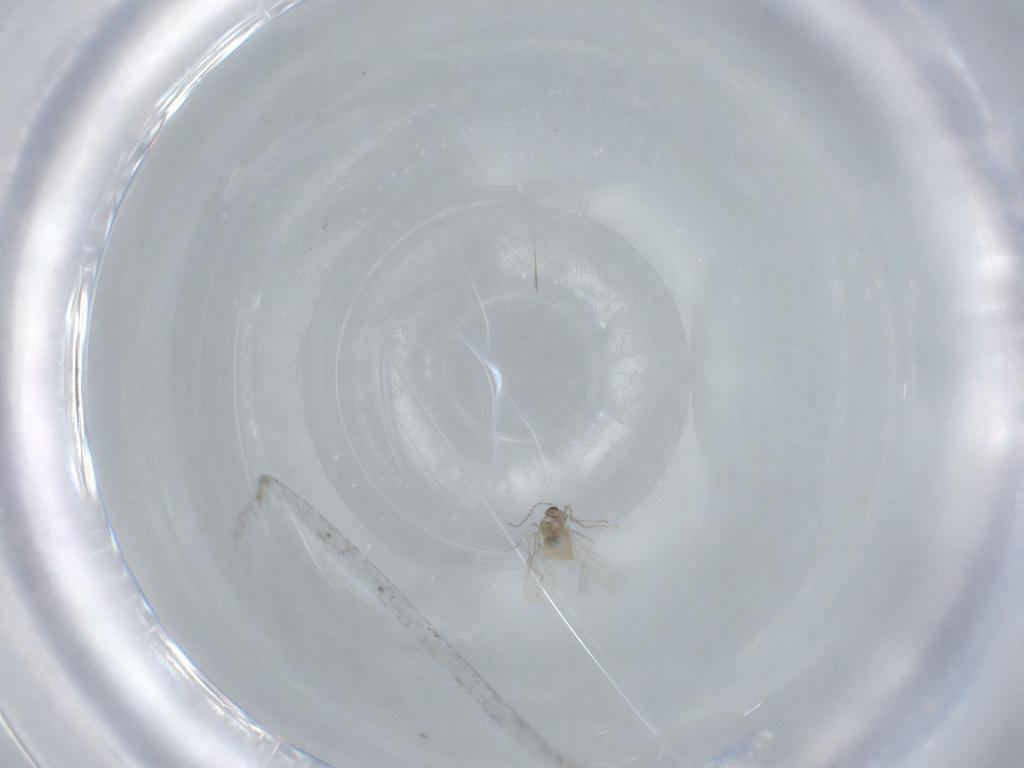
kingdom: Animalia
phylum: Arthropoda
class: Insecta
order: Diptera
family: Cecidomyiidae
